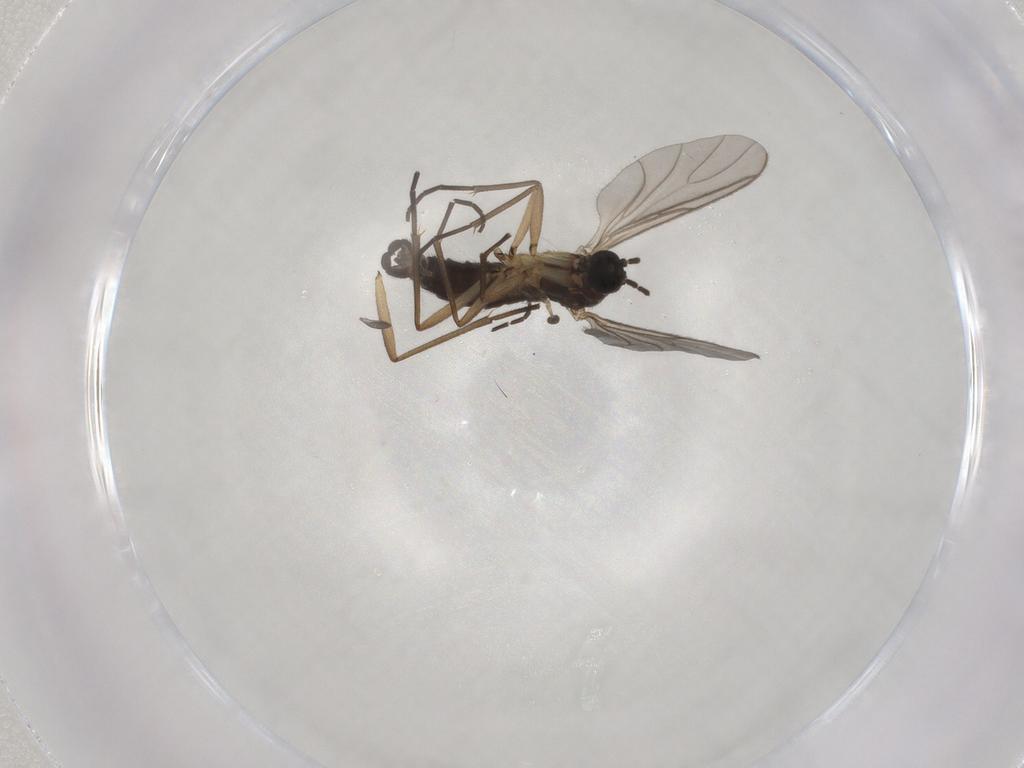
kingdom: Animalia
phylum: Arthropoda
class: Insecta
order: Diptera
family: Sciaridae
